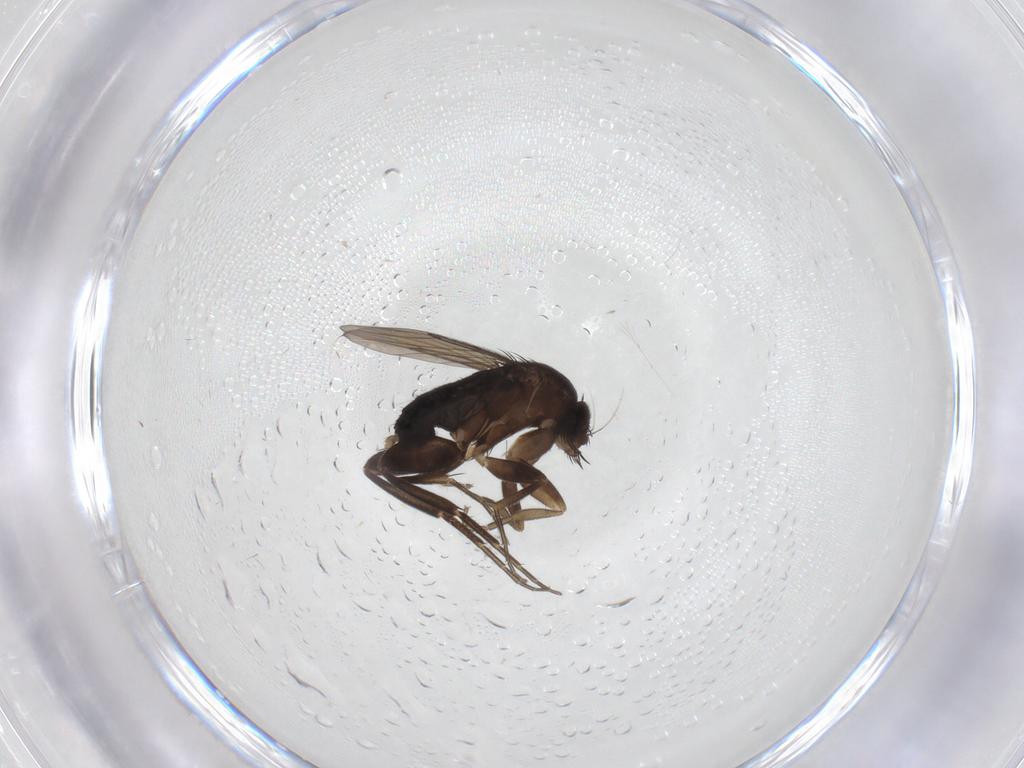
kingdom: Animalia
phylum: Arthropoda
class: Insecta
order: Diptera
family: Phoridae
